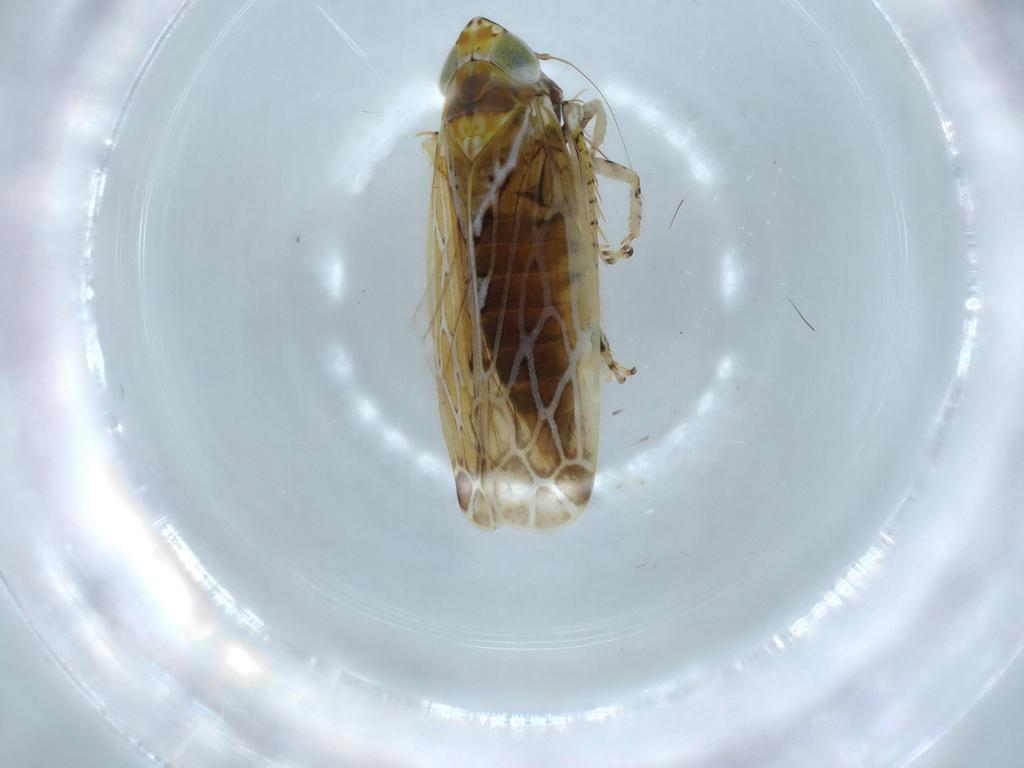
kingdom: Animalia
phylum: Arthropoda
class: Insecta
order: Hemiptera
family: Cicadellidae
